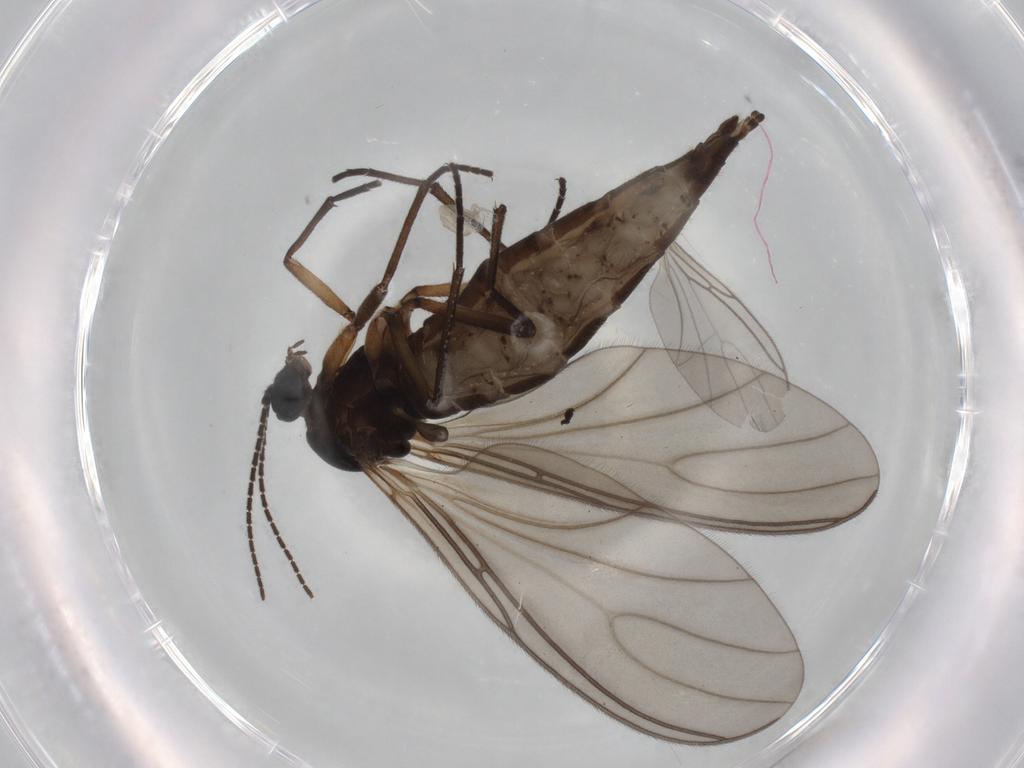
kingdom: Animalia
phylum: Arthropoda
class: Insecta
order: Diptera
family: Sciaridae
